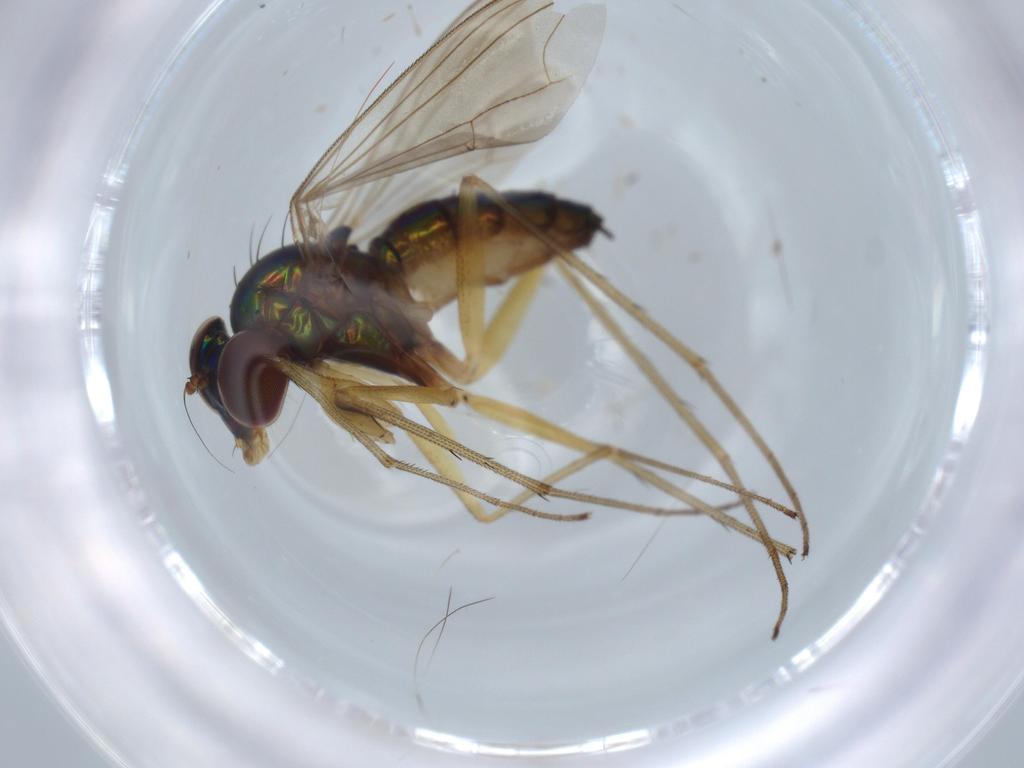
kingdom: Animalia
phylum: Arthropoda
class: Insecta
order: Diptera
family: Dolichopodidae
